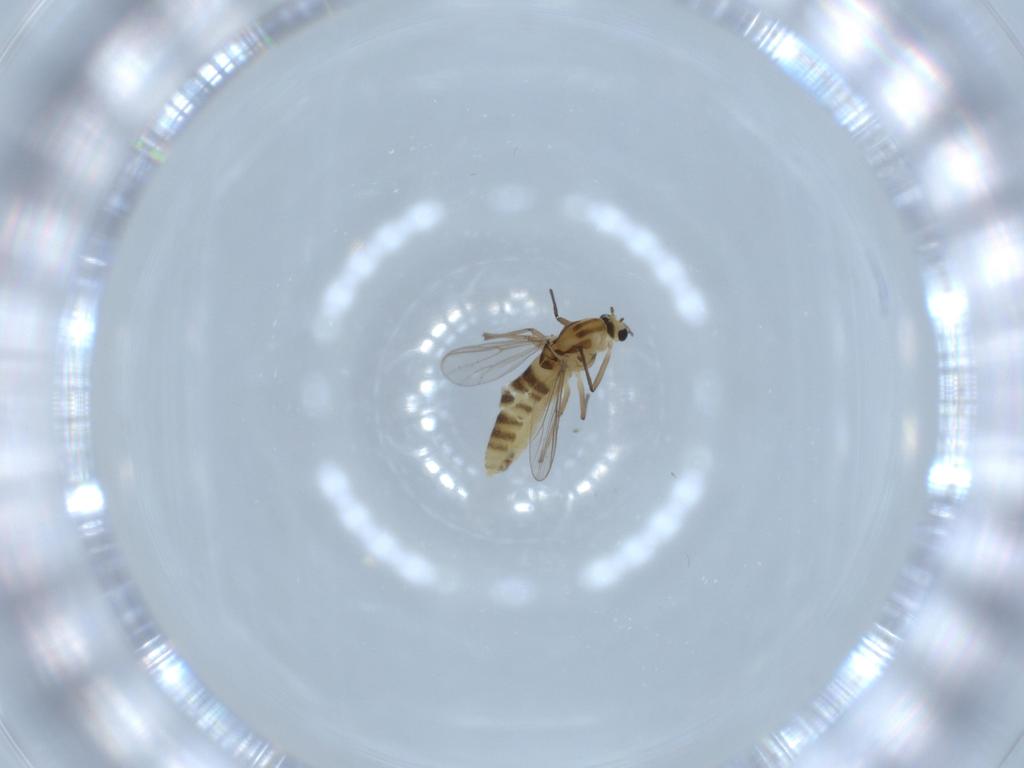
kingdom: Animalia
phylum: Arthropoda
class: Insecta
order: Diptera
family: Chironomidae
